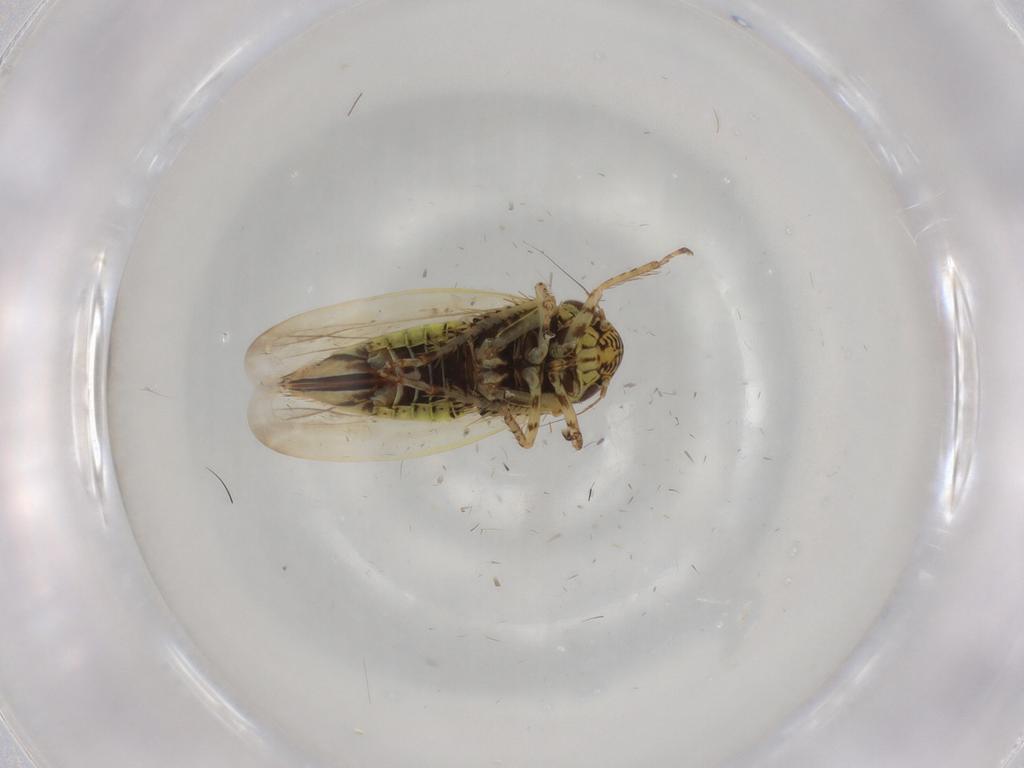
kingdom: Animalia
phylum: Arthropoda
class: Insecta
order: Hemiptera
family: Cicadellidae
